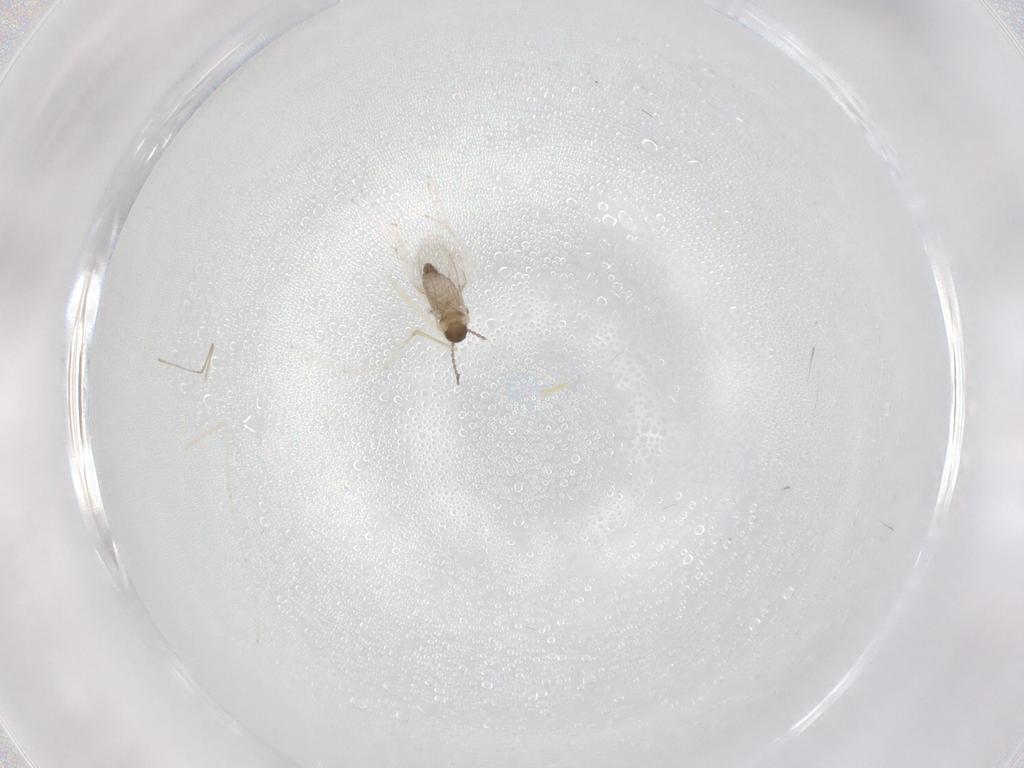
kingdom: Animalia
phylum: Arthropoda
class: Insecta
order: Diptera
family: Cecidomyiidae
